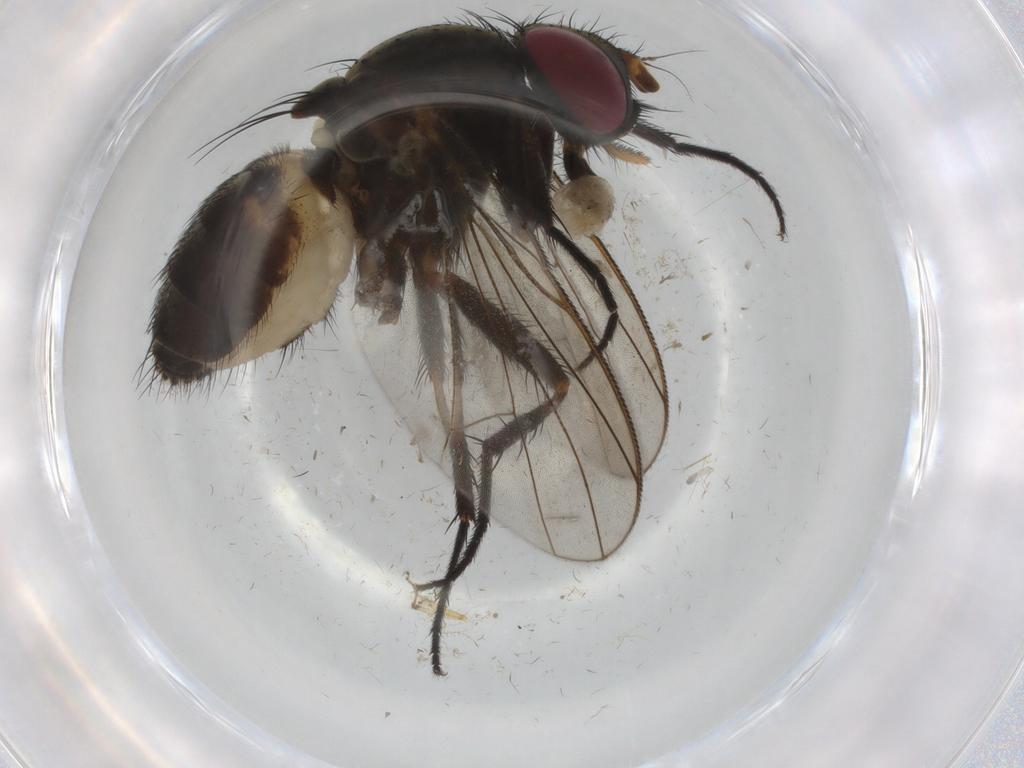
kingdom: Animalia
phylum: Arthropoda
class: Insecta
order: Diptera
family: Fannia
